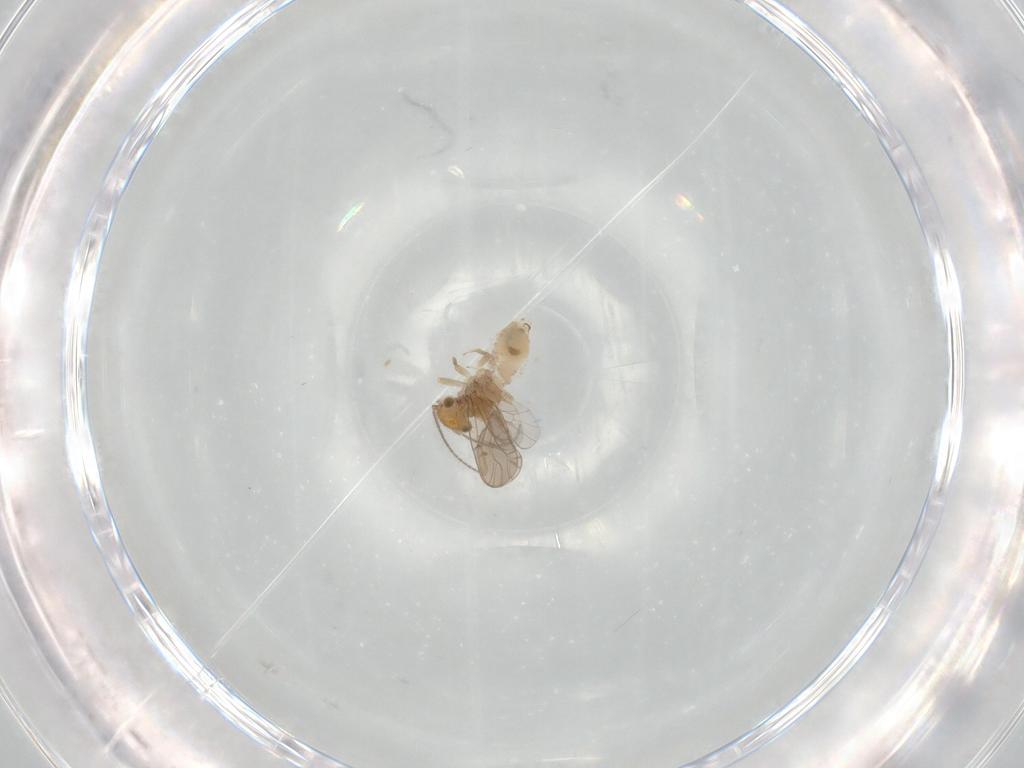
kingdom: Animalia
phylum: Arthropoda
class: Insecta
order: Psocodea
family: Ectopsocidae
